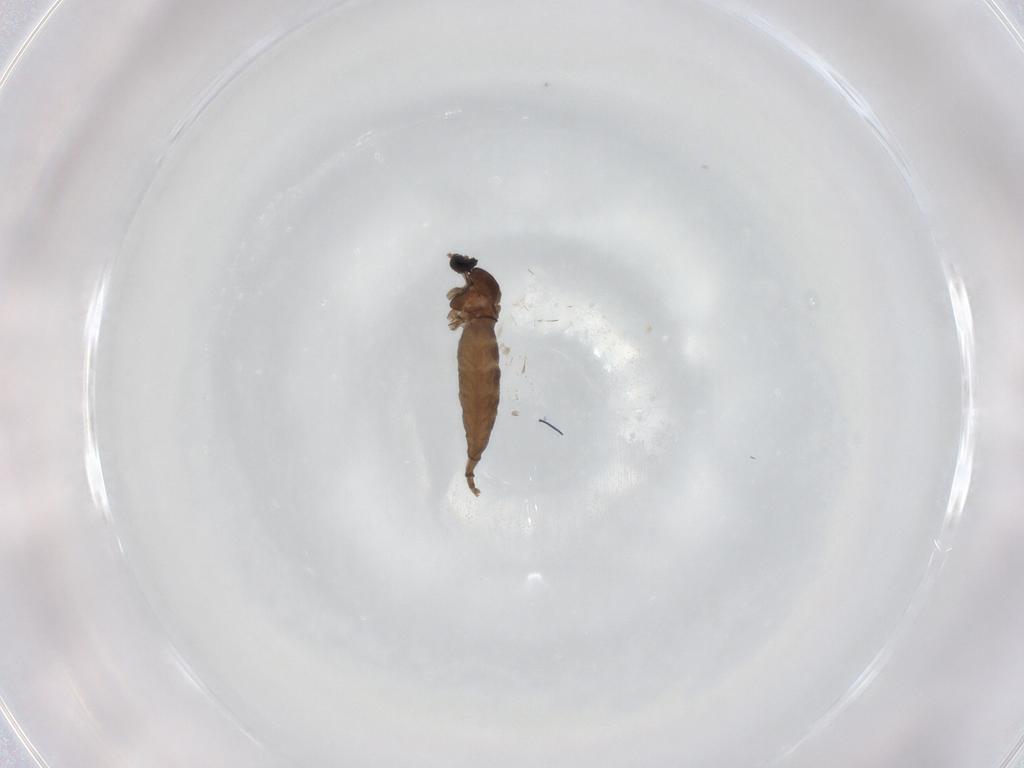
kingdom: Animalia
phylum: Arthropoda
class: Insecta
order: Diptera
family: Cecidomyiidae
